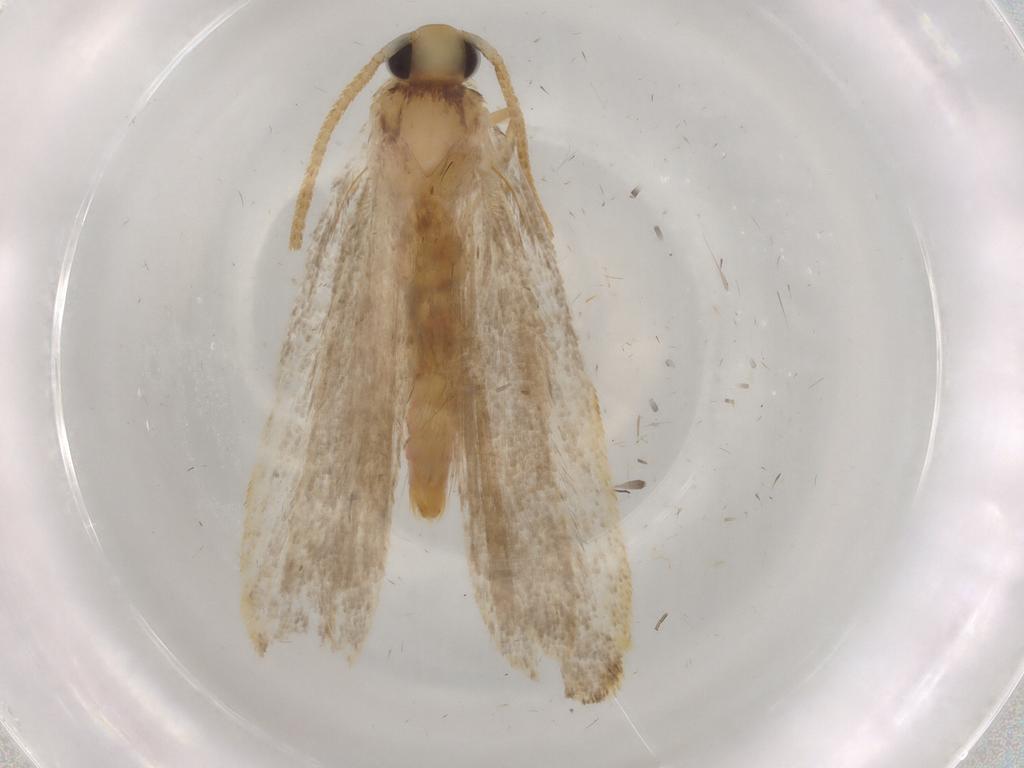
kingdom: Animalia
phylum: Arthropoda
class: Insecta
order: Lepidoptera
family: Autostichidae
